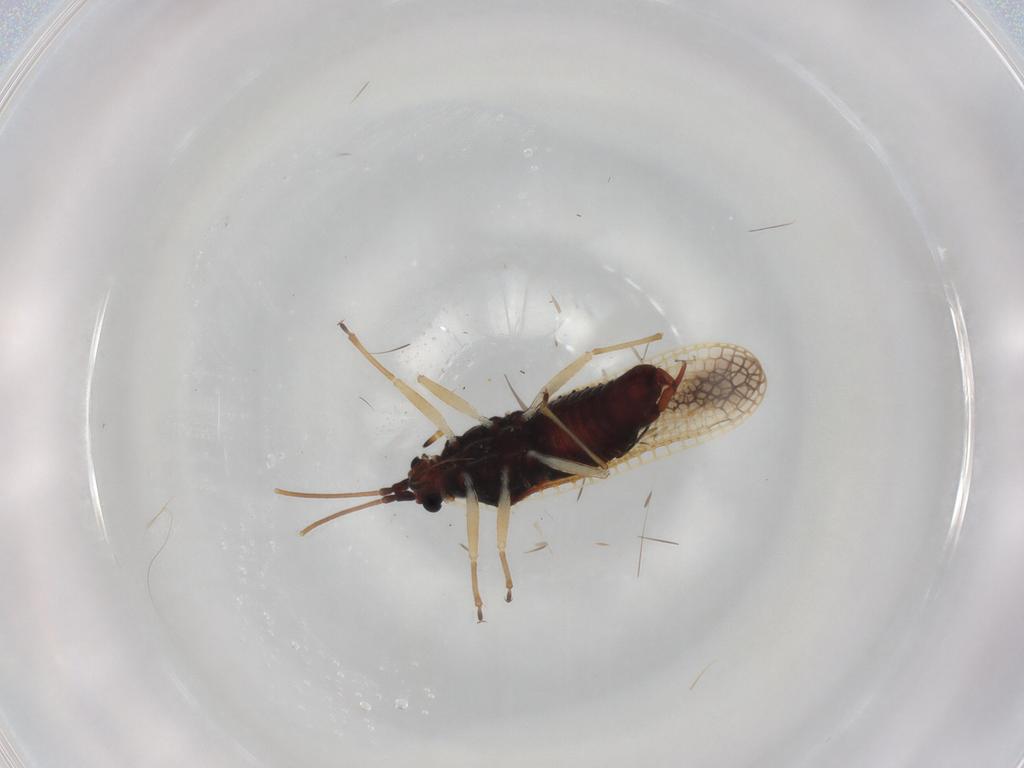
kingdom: Animalia
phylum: Arthropoda
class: Insecta
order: Hemiptera
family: Tingidae
